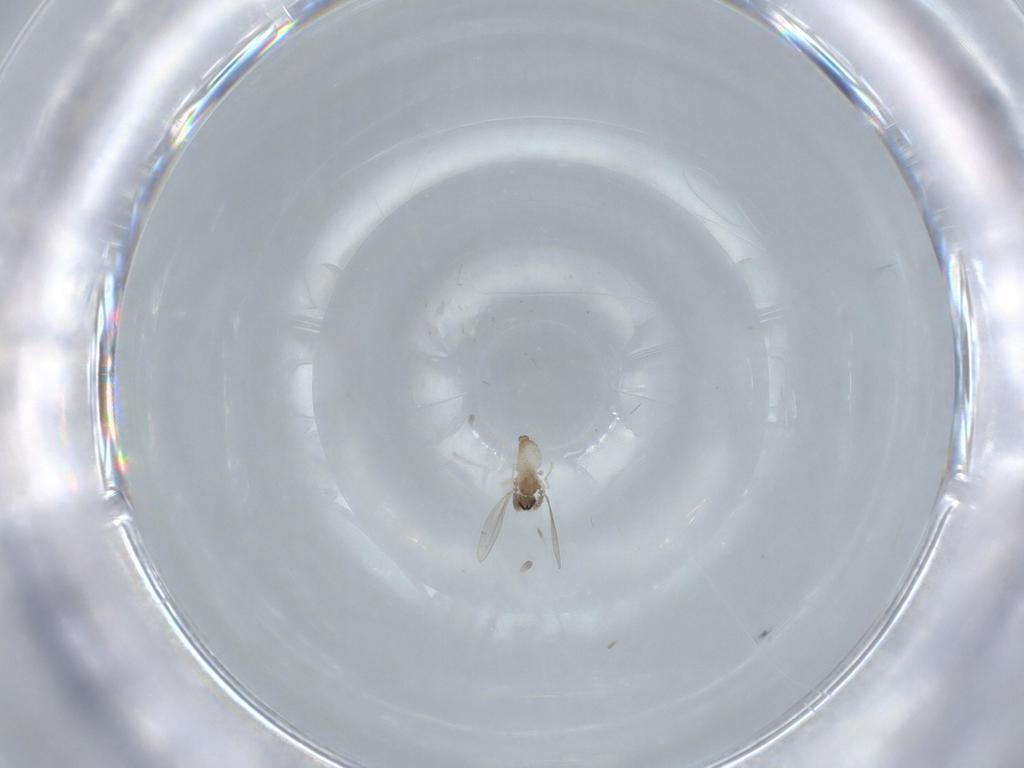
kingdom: Animalia
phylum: Arthropoda
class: Insecta
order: Diptera
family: Cecidomyiidae
